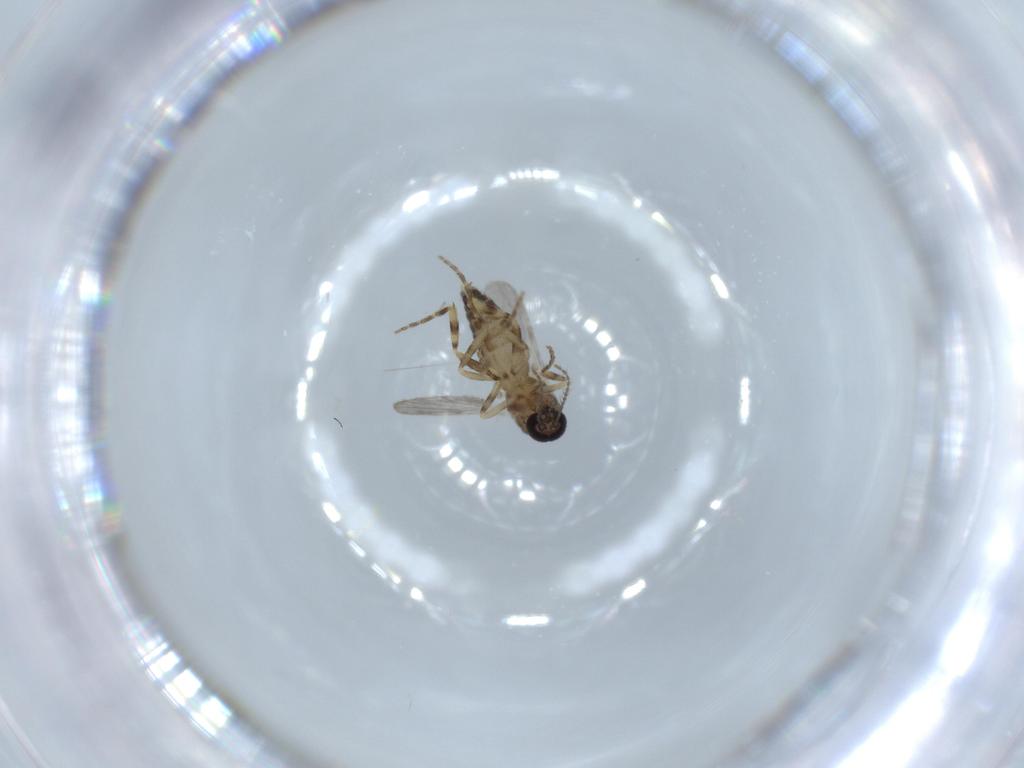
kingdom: Animalia
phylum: Arthropoda
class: Insecta
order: Diptera
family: Ceratopogonidae
